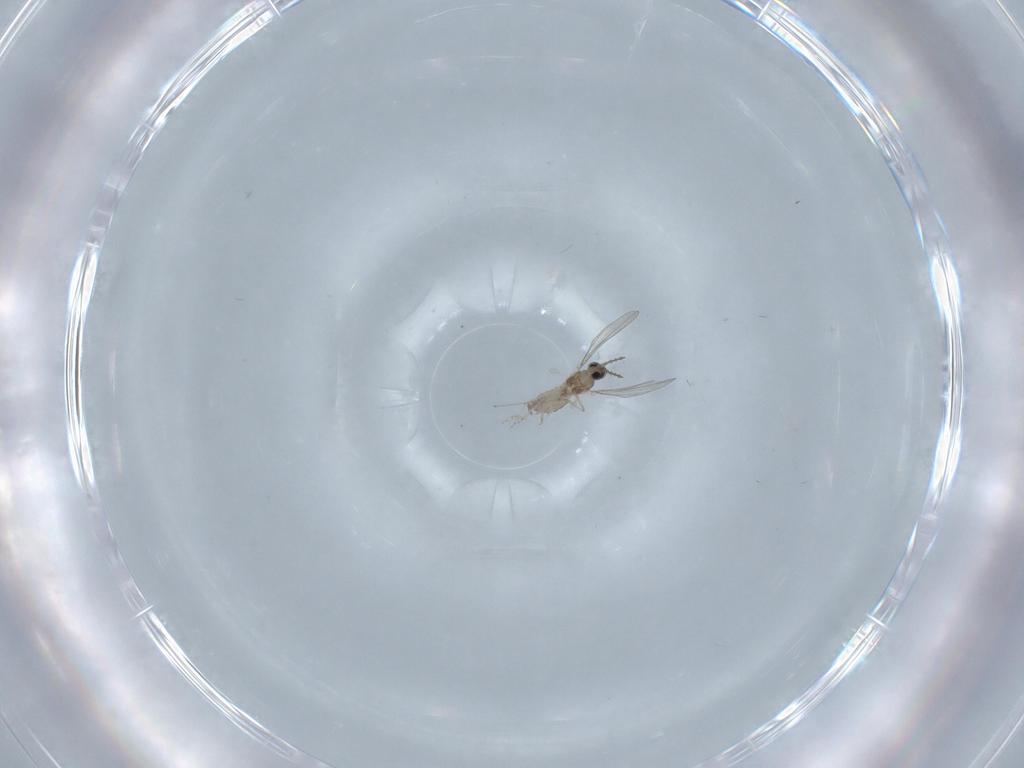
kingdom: Animalia
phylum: Arthropoda
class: Insecta
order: Diptera
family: Cecidomyiidae
